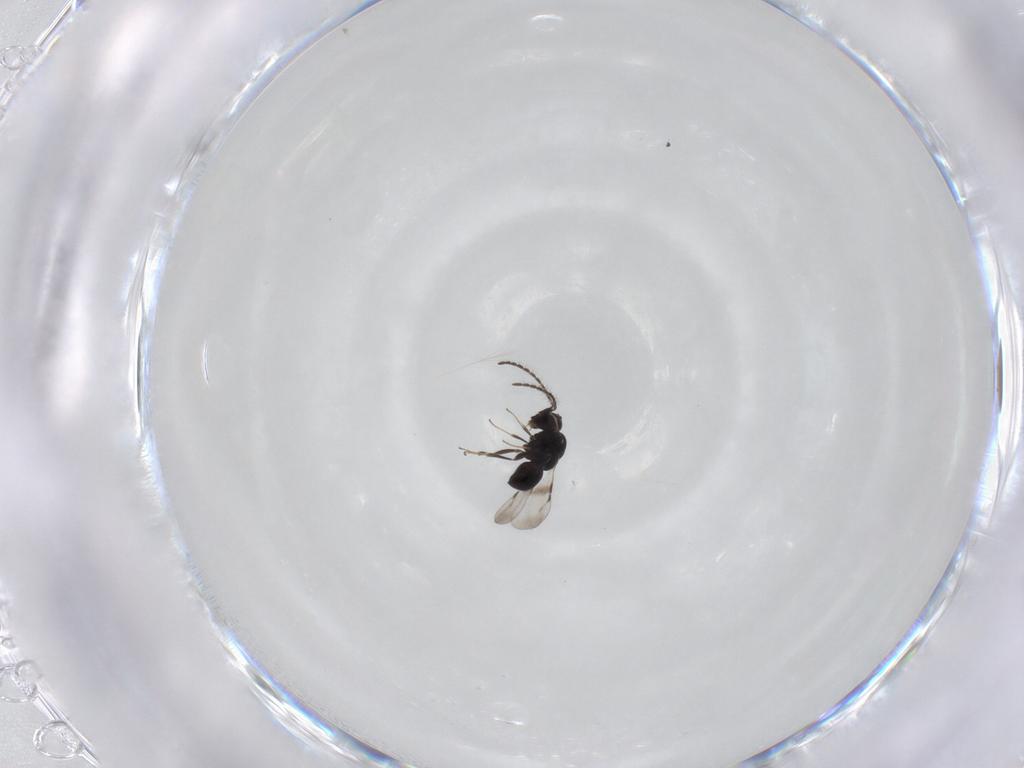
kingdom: Animalia
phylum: Arthropoda
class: Insecta
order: Hymenoptera
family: Ceraphronidae
